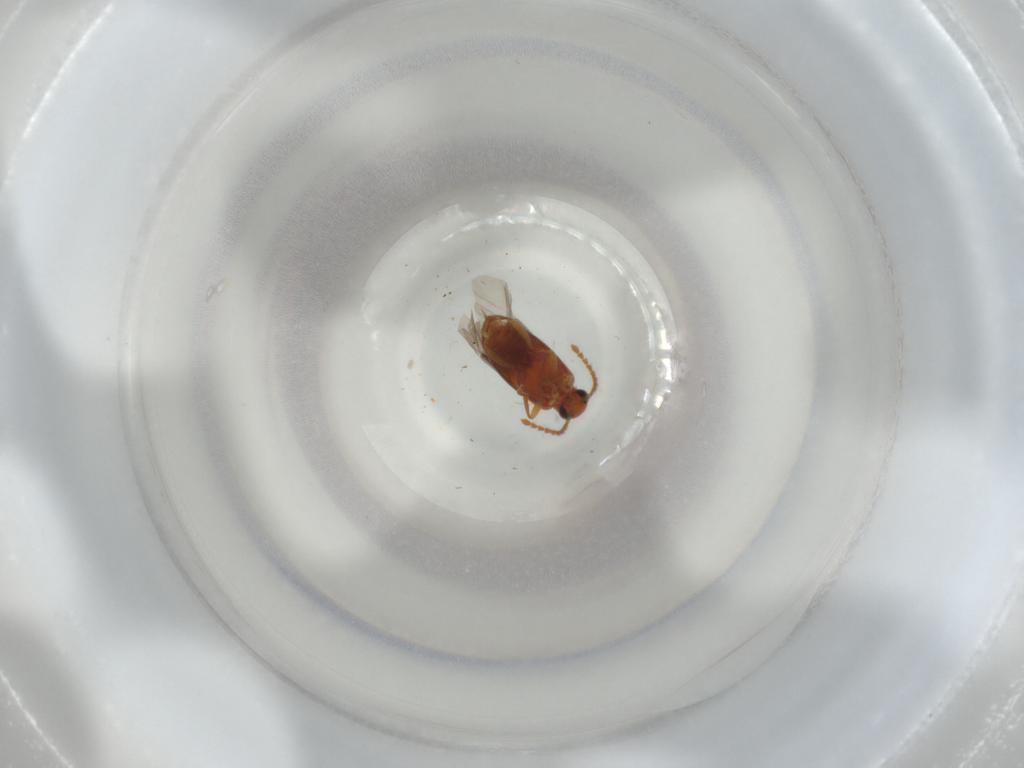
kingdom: Animalia
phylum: Arthropoda
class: Insecta
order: Coleoptera
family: Aderidae
